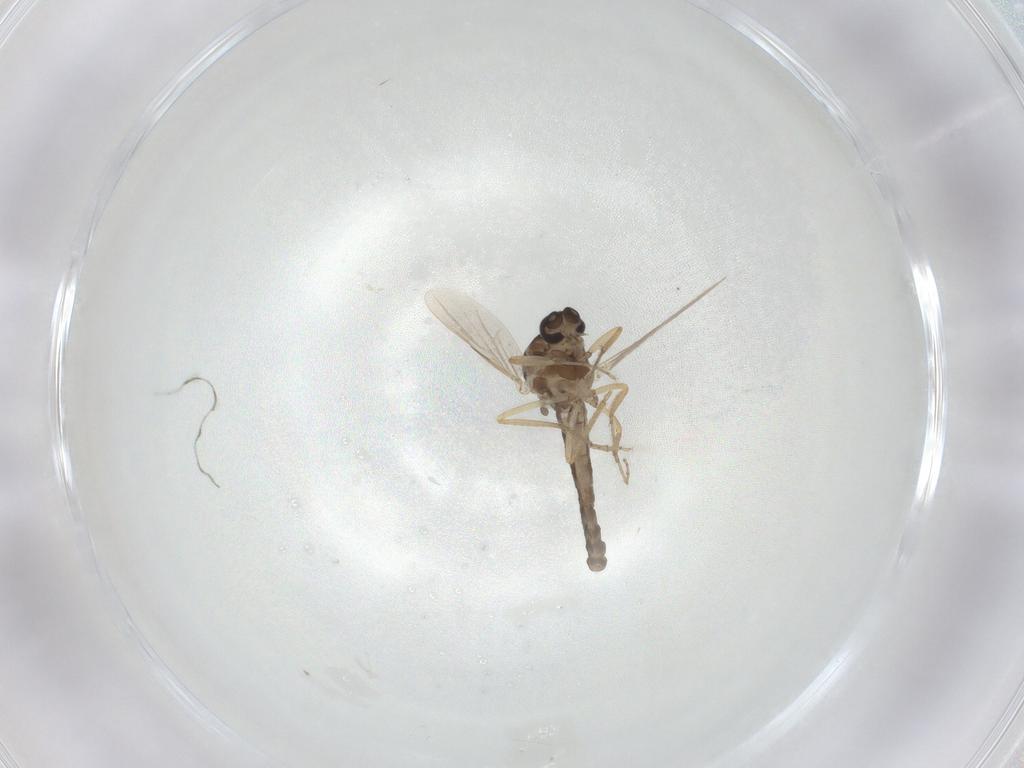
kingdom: Animalia
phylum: Arthropoda
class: Insecta
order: Diptera
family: Ceratopogonidae
